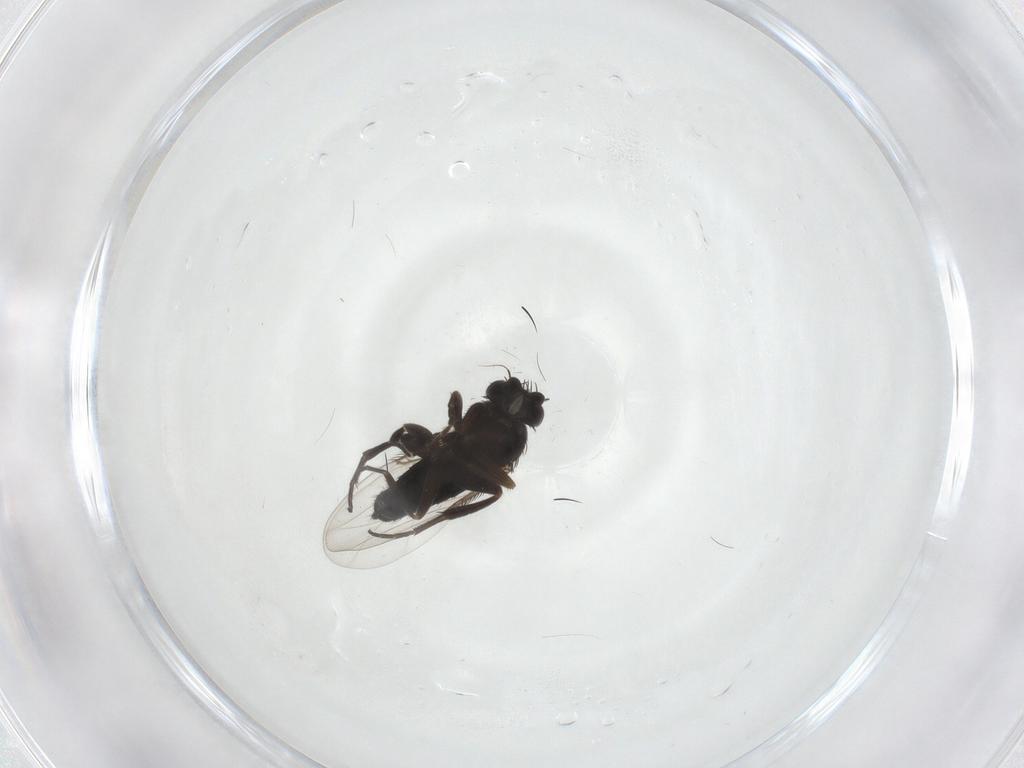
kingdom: Animalia
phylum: Arthropoda
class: Insecta
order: Diptera
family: Phoridae
